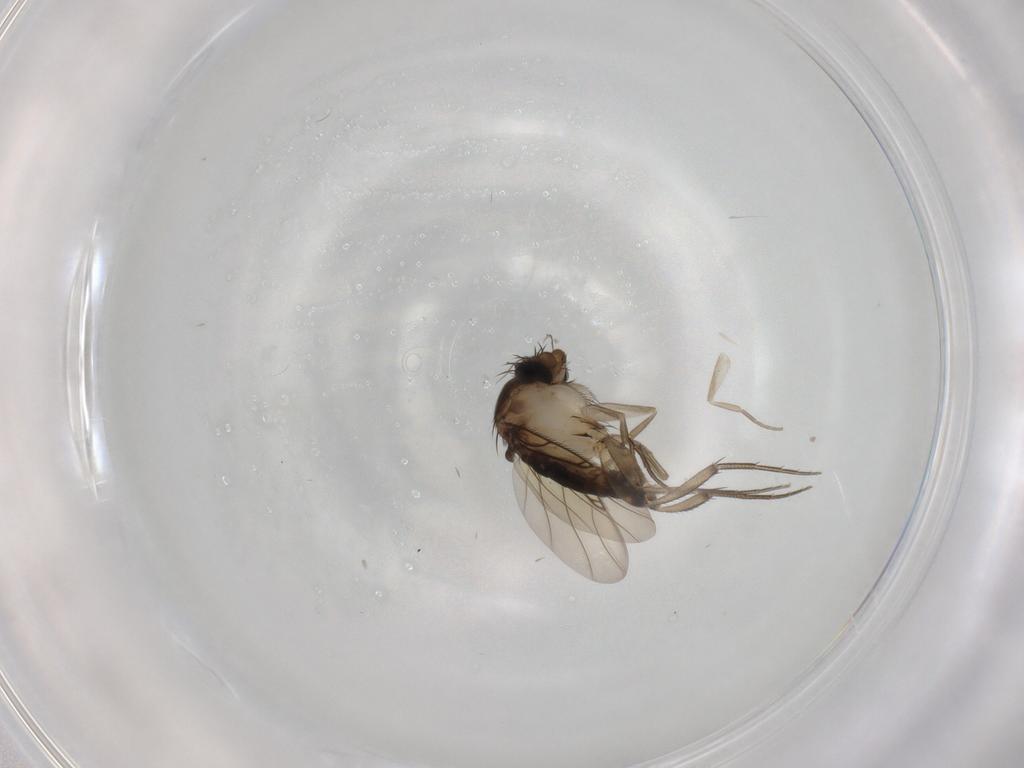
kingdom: Animalia
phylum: Arthropoda
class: Insecta
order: Diptera
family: Phoridae
